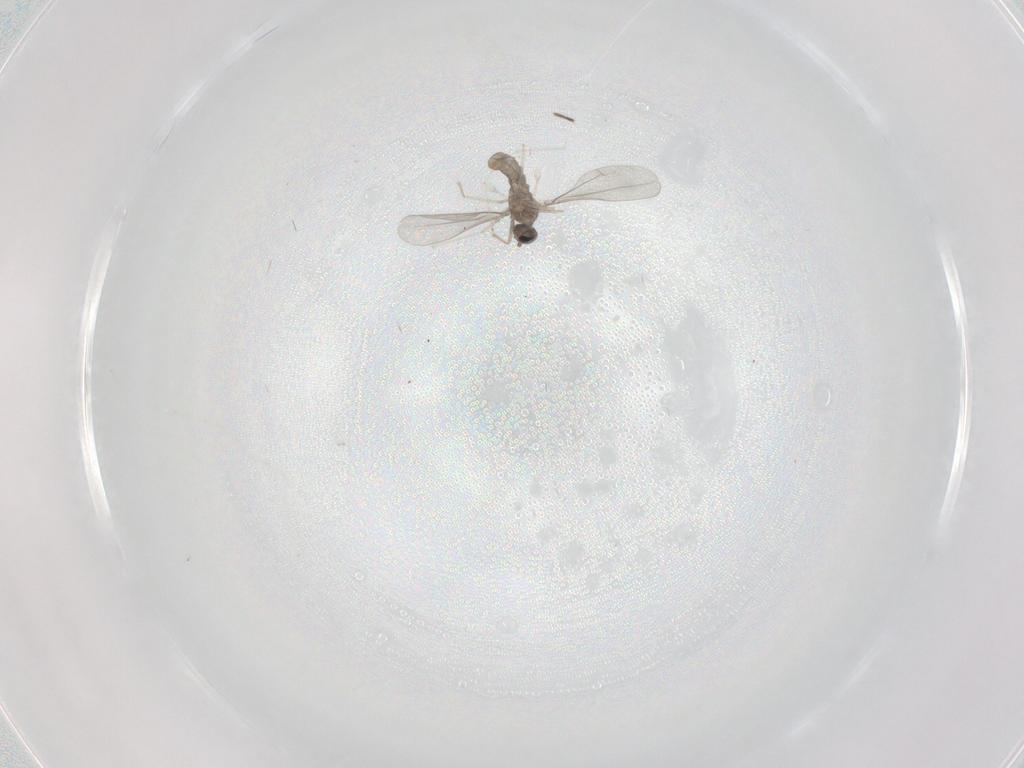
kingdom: Animalia
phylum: Arthropoda
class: Insecta
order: Diptera
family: Cecidomyiidae
